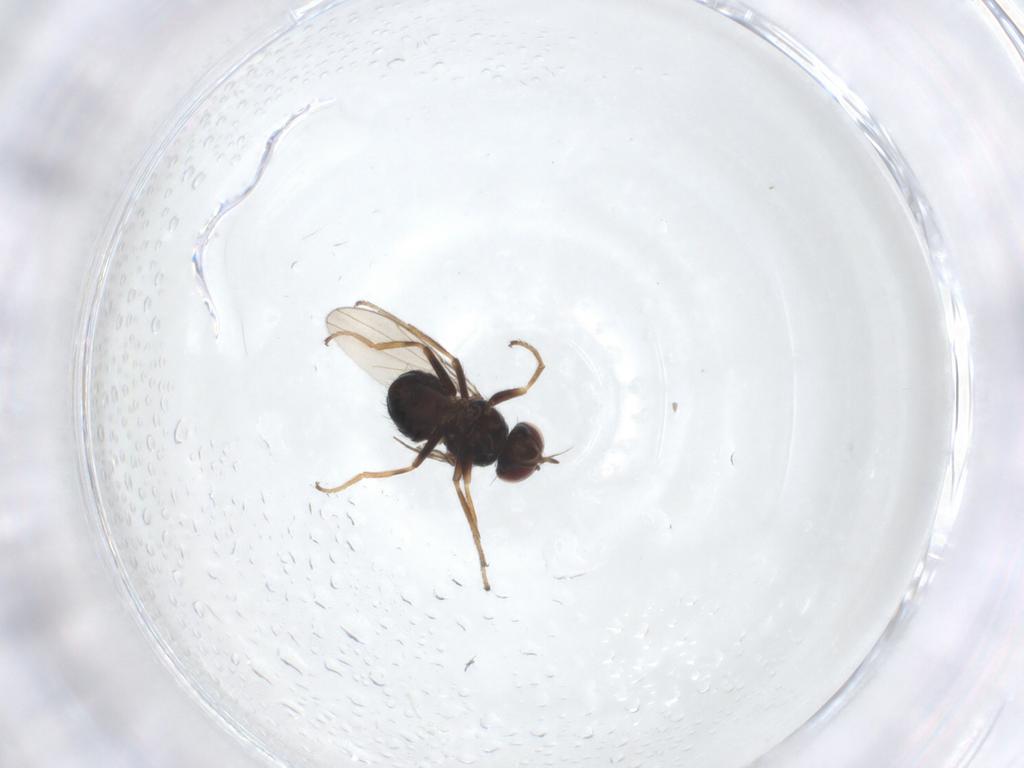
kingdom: Animalia
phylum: Arthropoda
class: Insecta
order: Diptera
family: Ephydridae
